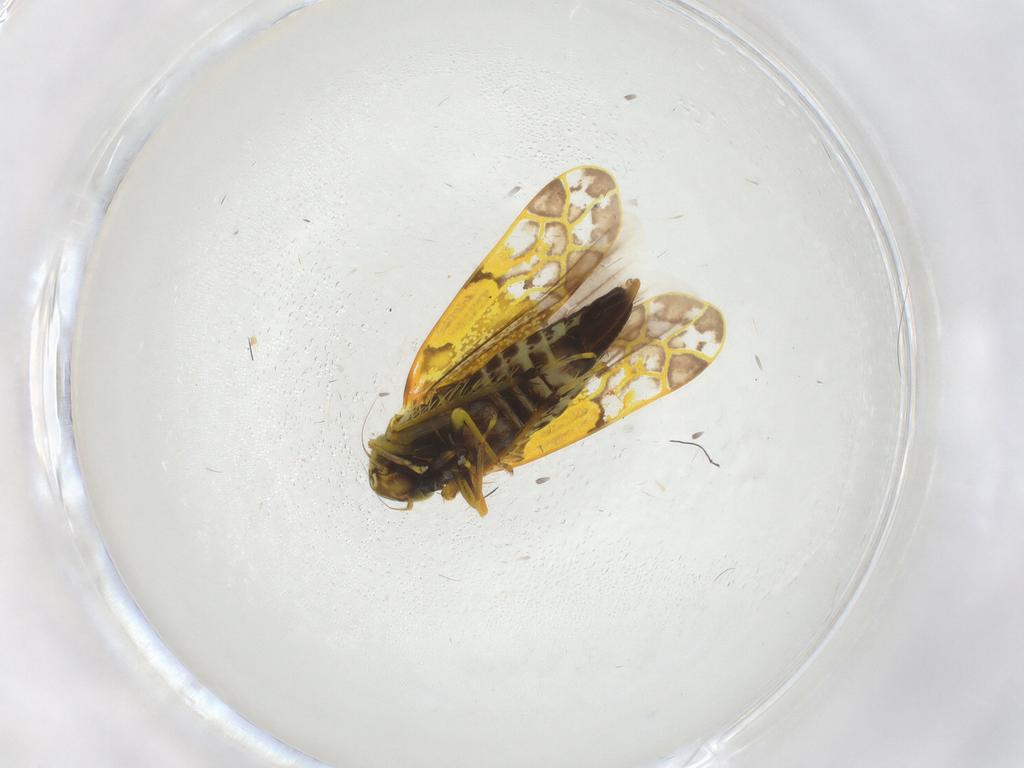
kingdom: Animalia
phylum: Arthropoda
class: Insecta
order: Hemiptera
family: Cicadellidae
